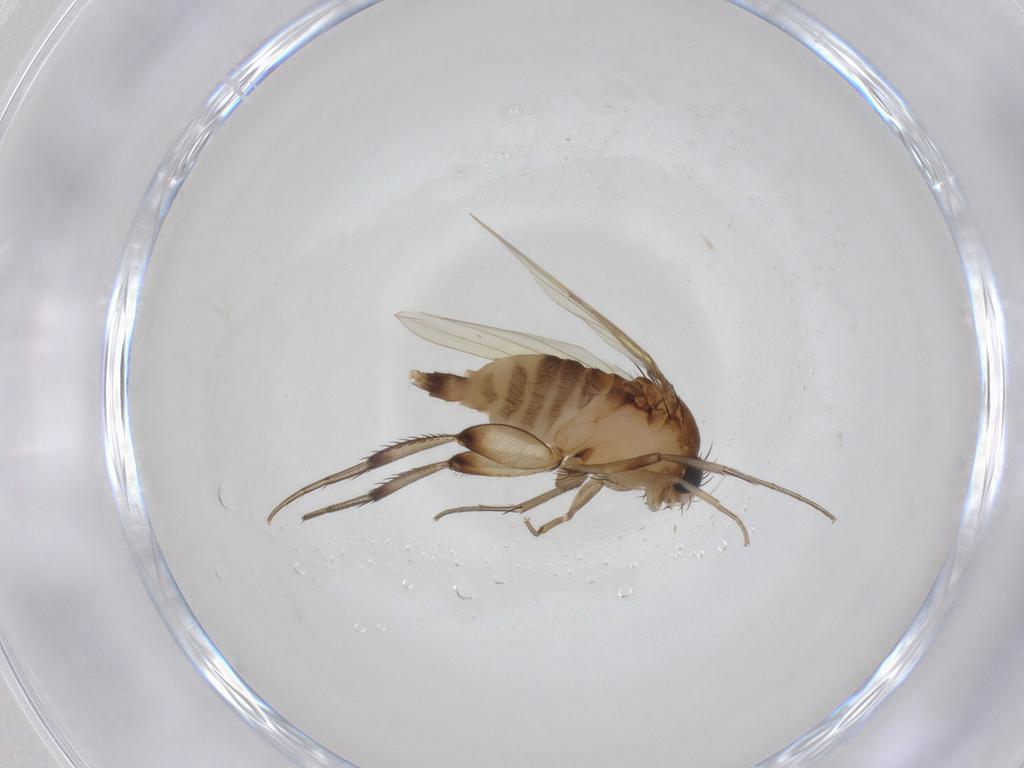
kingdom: Animalia
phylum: Arthropoda
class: Insecta
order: Diptera
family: Phoridae
